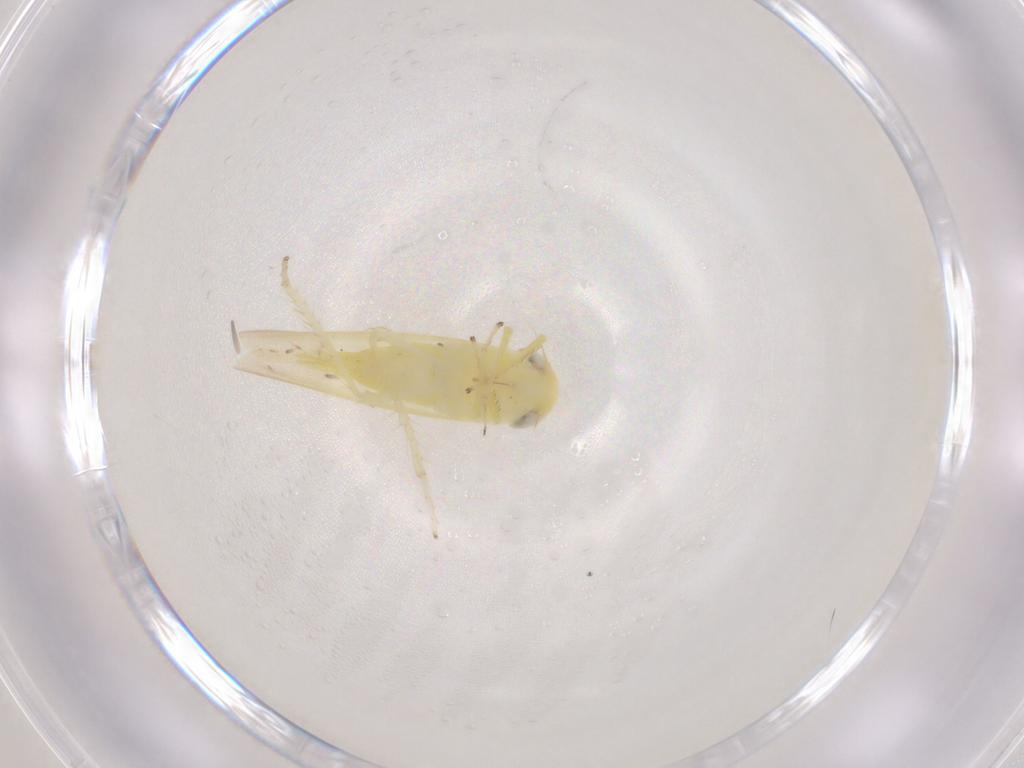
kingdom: Animalia
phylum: Arthropoda
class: Insecta
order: Hemiptera
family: Cicadellidae
